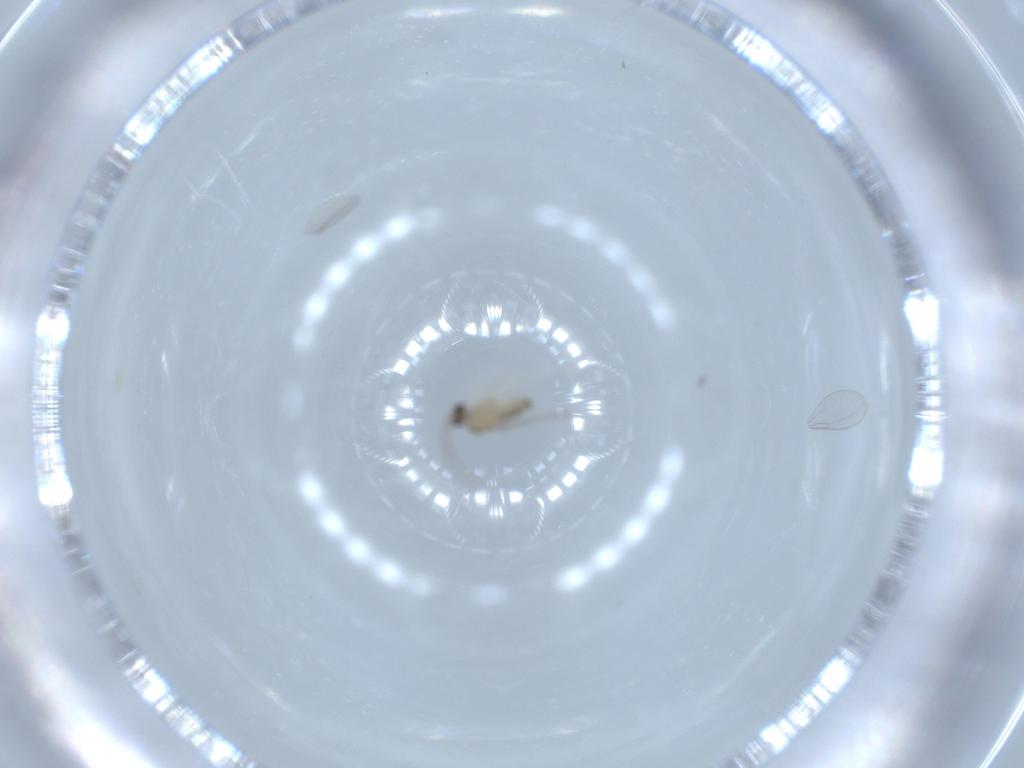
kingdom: Animalia
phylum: Arthropoda
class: Insecta
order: Diptera
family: Cecidomyiidae
